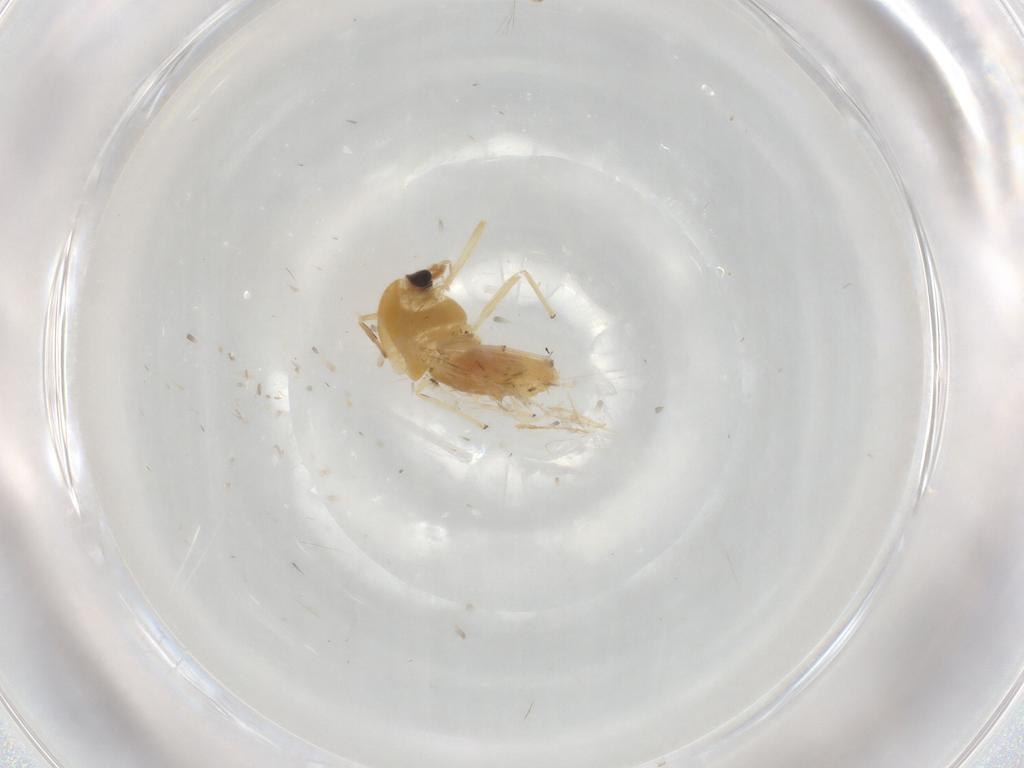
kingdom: Animalia
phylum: Arthropoda
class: Insecta
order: Diptera
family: Chironomidae
